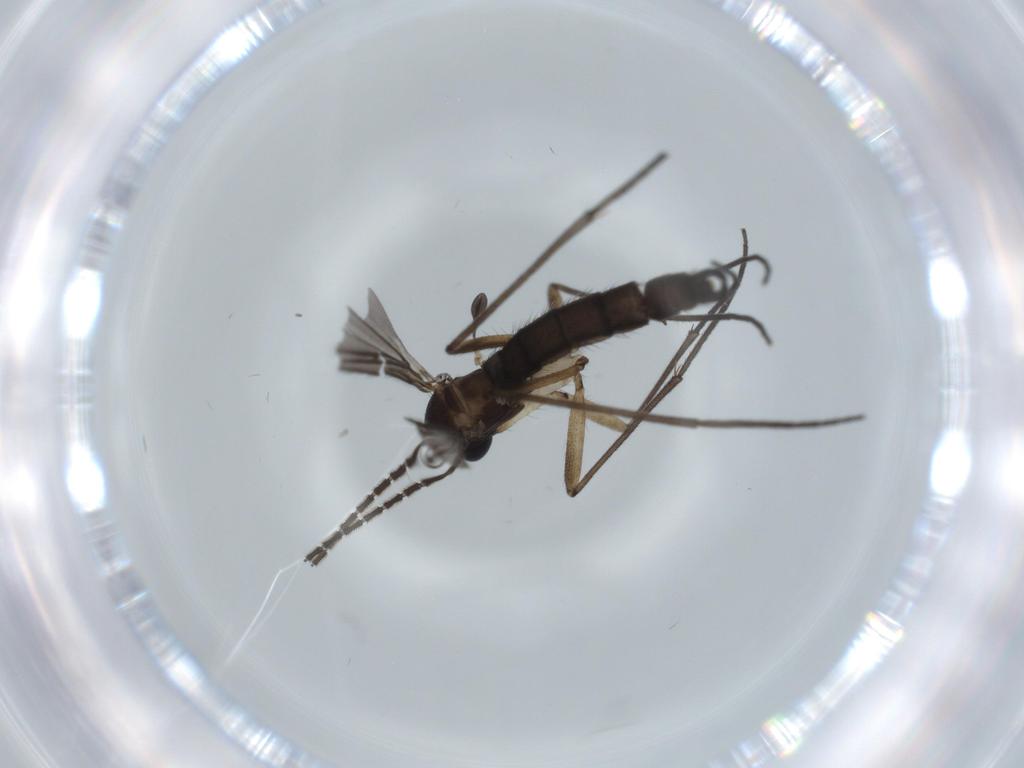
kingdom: Animalia
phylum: Arthropoda
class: Insecta
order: Diptera
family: Sciaridae
